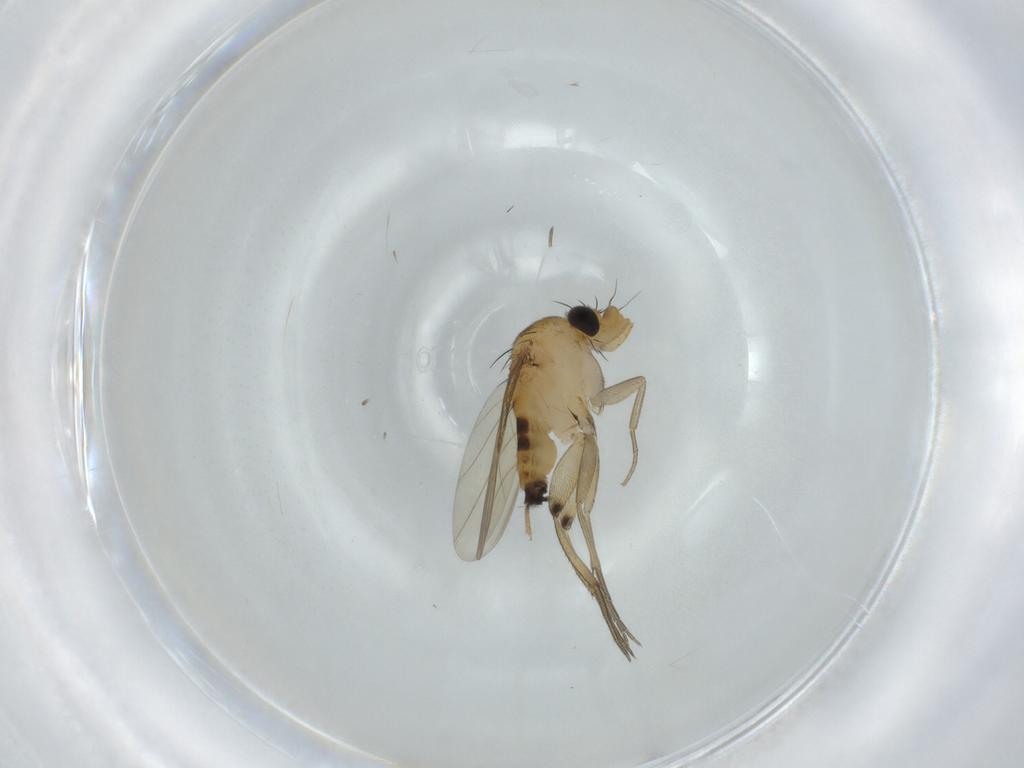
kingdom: Animalia
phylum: Arthropoda
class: Insecta
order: Diptera
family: Phoridae
